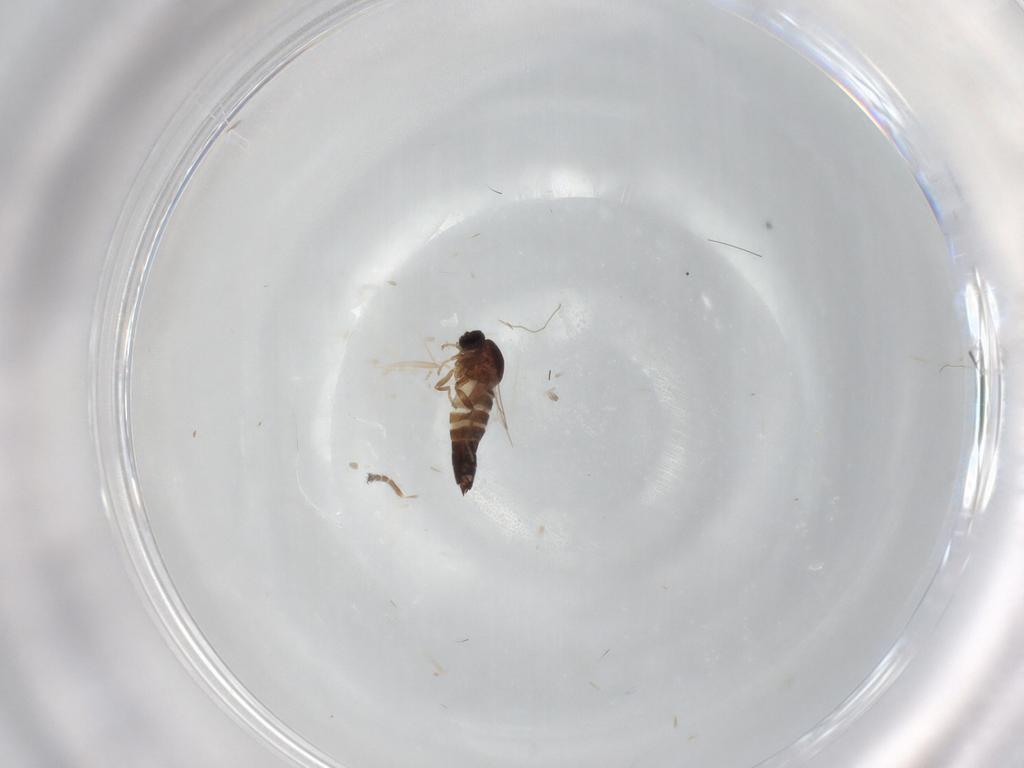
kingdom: Animalia
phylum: Arthropoda
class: Insecta
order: Diptera
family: Scatopsidae
